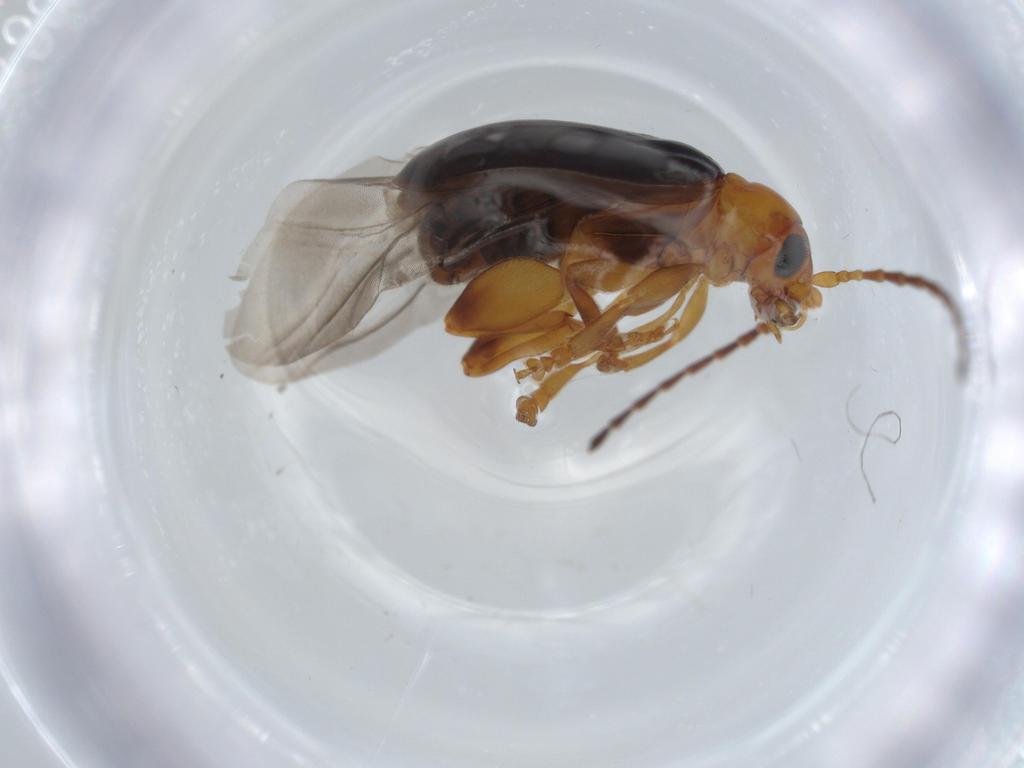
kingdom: Animalia
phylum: Arthropoda
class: Insecta
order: Coleoptera
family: Chrysomelidae
